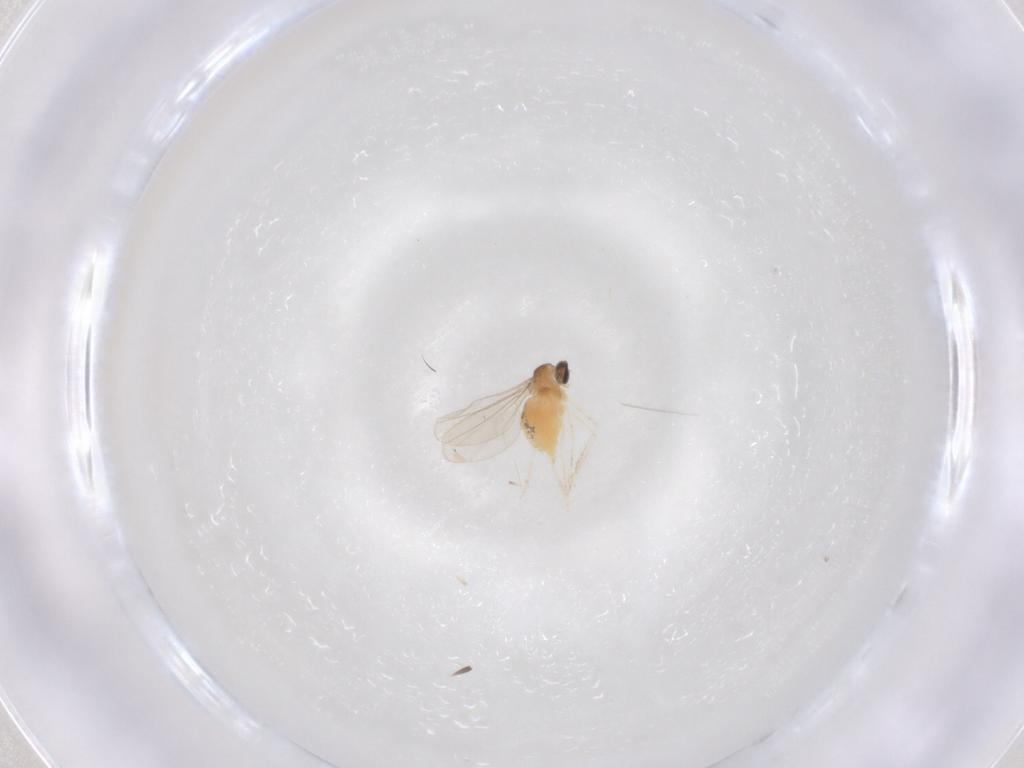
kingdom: Animalia
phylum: Arthropoda
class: Insecta
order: Diptera
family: Cecidomyiidae
